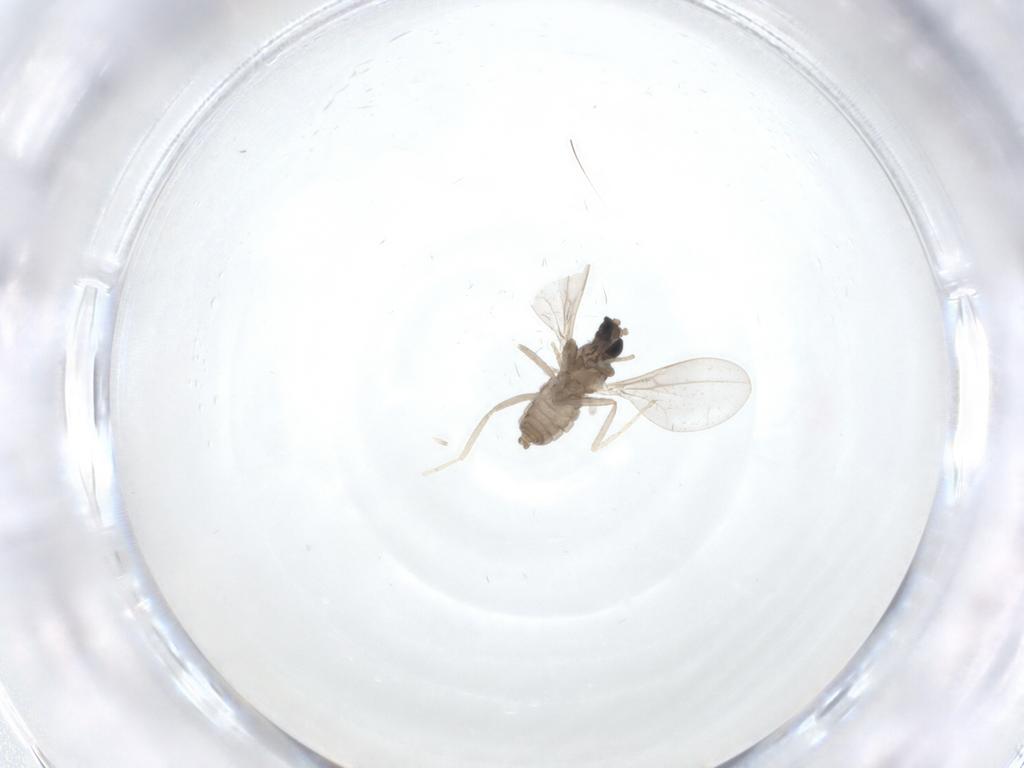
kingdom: Animalia
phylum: Arthropoda
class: Insecta
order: Diptera
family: Cecidomyiidae
